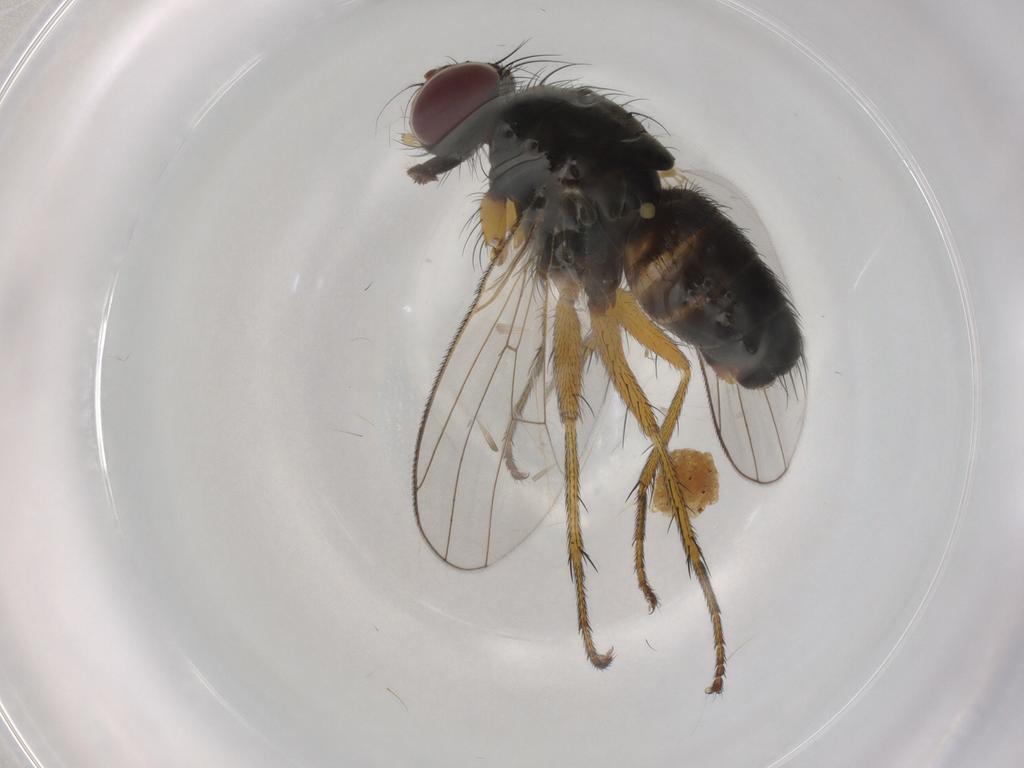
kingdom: Animalia
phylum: Arthropoda
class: Insecta
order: Diptera
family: Cecidomyiidae
